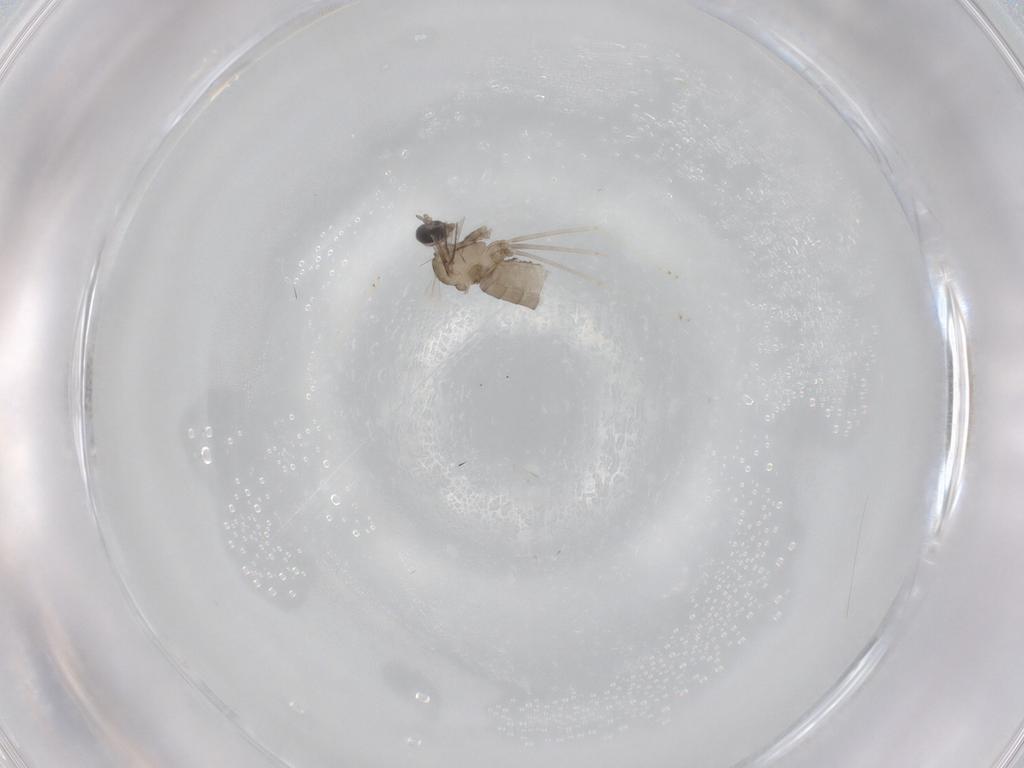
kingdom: Animalia
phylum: Arthropoda
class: Insecta
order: Diptera
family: Cecidomyiidae
